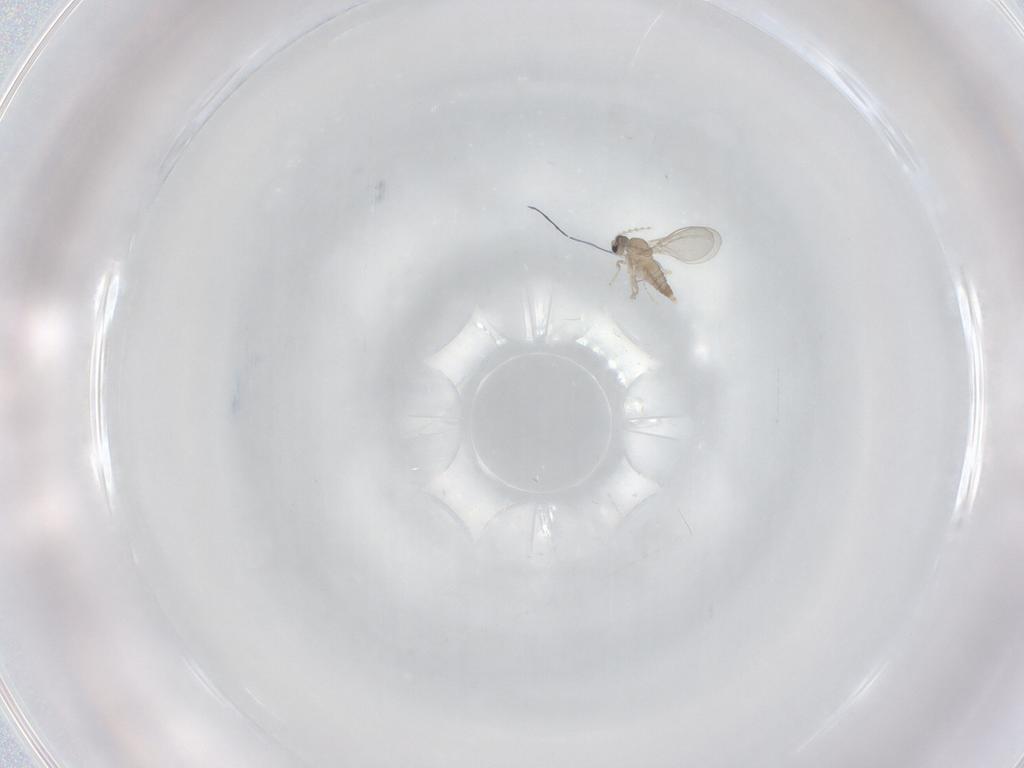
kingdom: Animalia
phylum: Arthropoda
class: Insecta
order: Diptera
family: Cecidomyiidae
